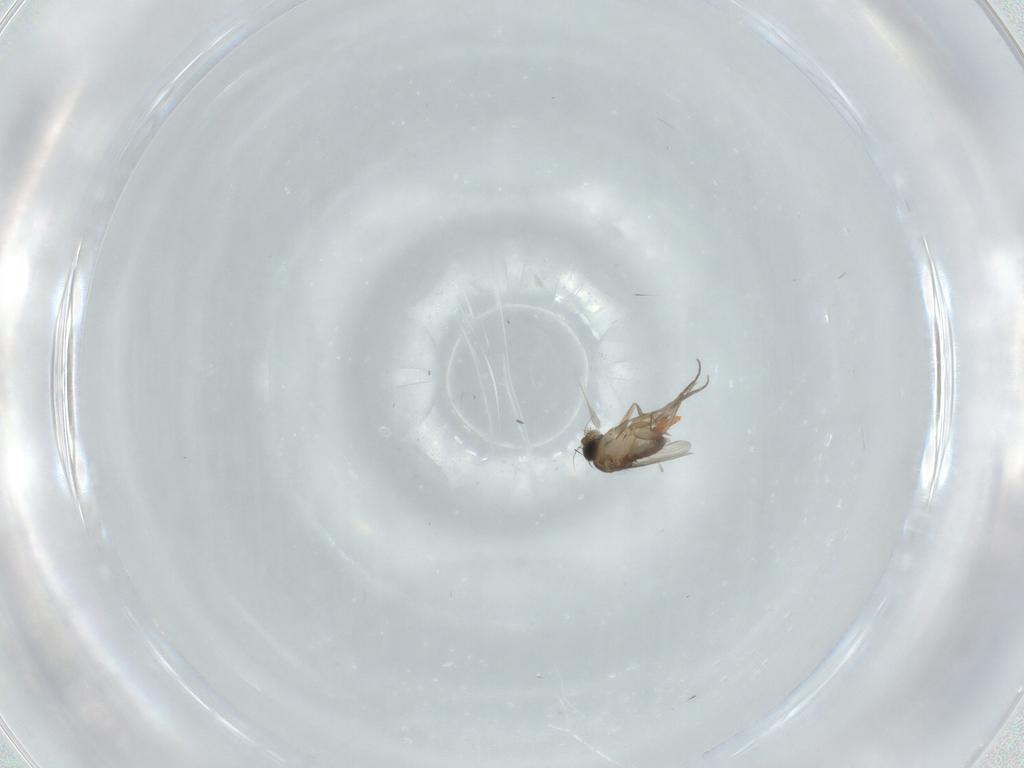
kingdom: Animalia
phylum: Arthropoda
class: Insecta
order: Diptera
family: Phoridae
